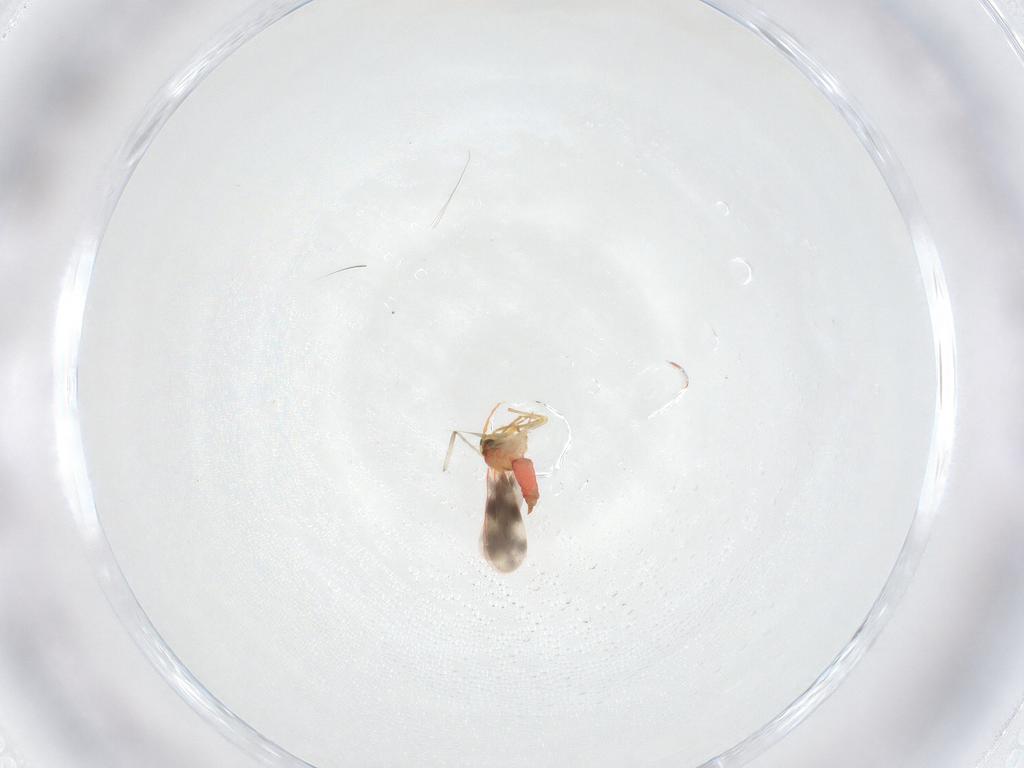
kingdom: Animalia
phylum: Arthropoda
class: Insecta
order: Hemiptera
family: Aleyrodidae
